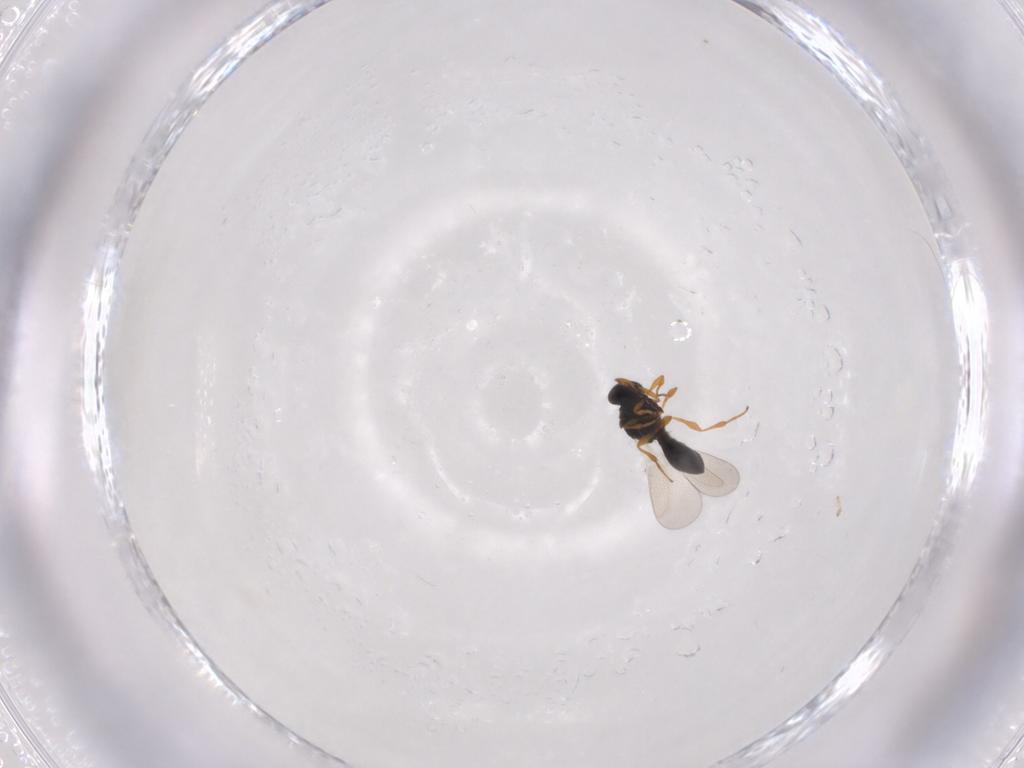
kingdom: Animalia
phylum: Arthropoda
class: Insecta
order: Hymenoptera
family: Platygastridae
